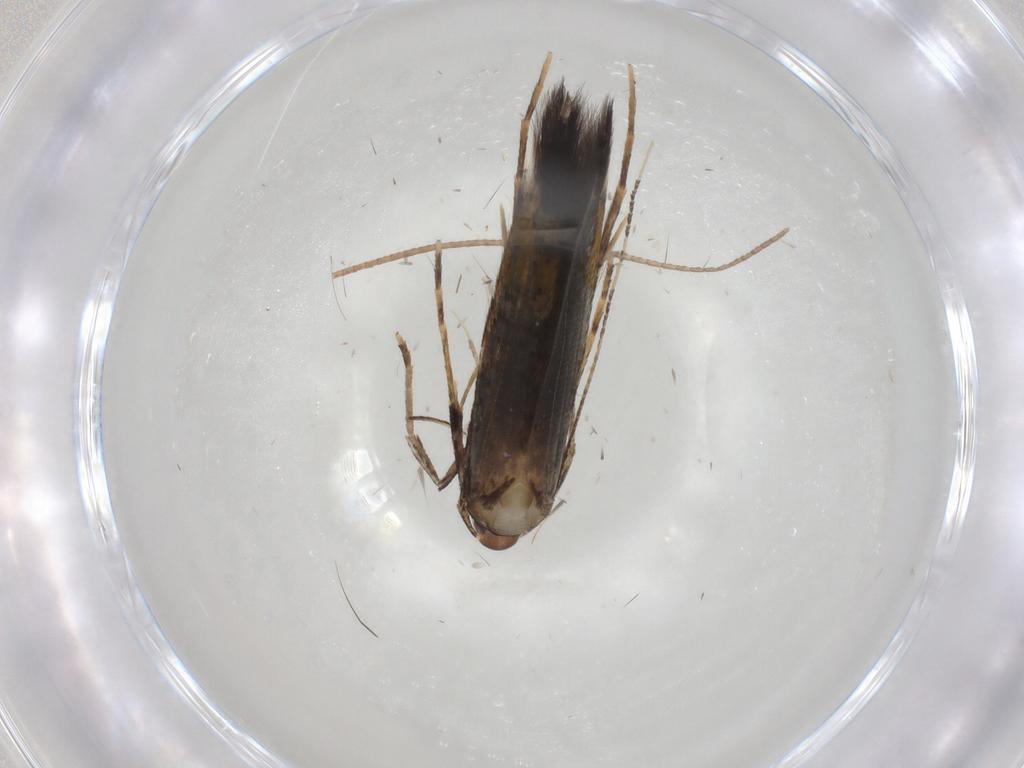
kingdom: Animalia
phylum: Arthropoda
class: Insecta
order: Lepidoptera
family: Cosmopterigidae
